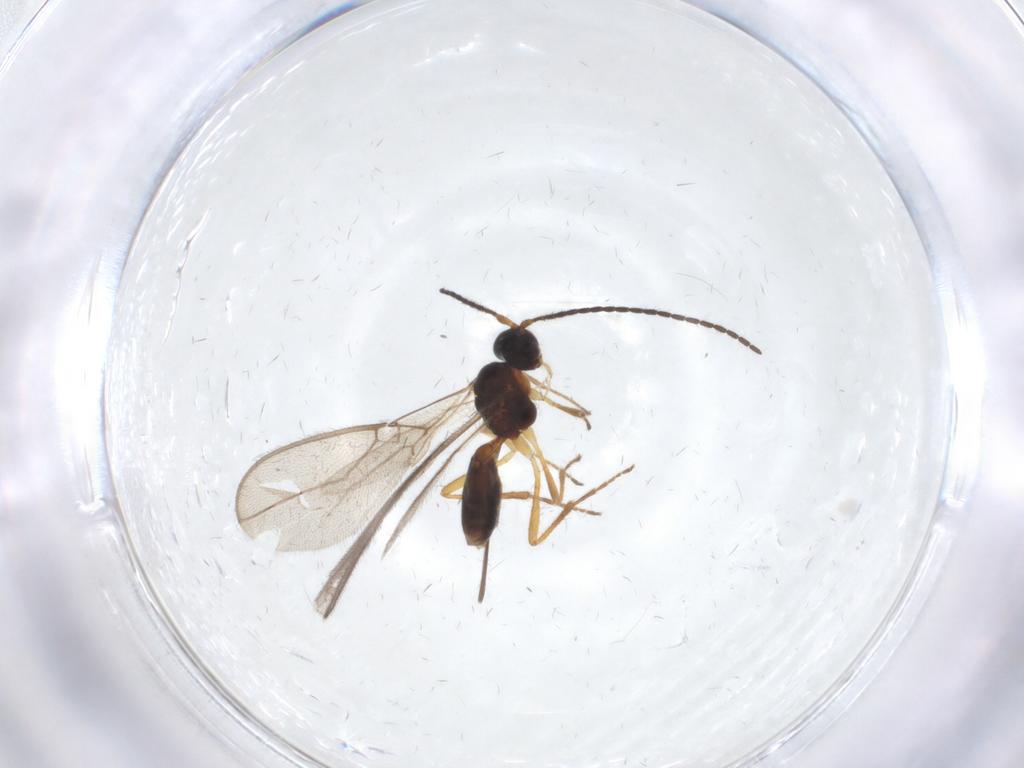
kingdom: Animalia
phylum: Arthropoda
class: Insecta
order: Hymenoptera
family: Braconidae
